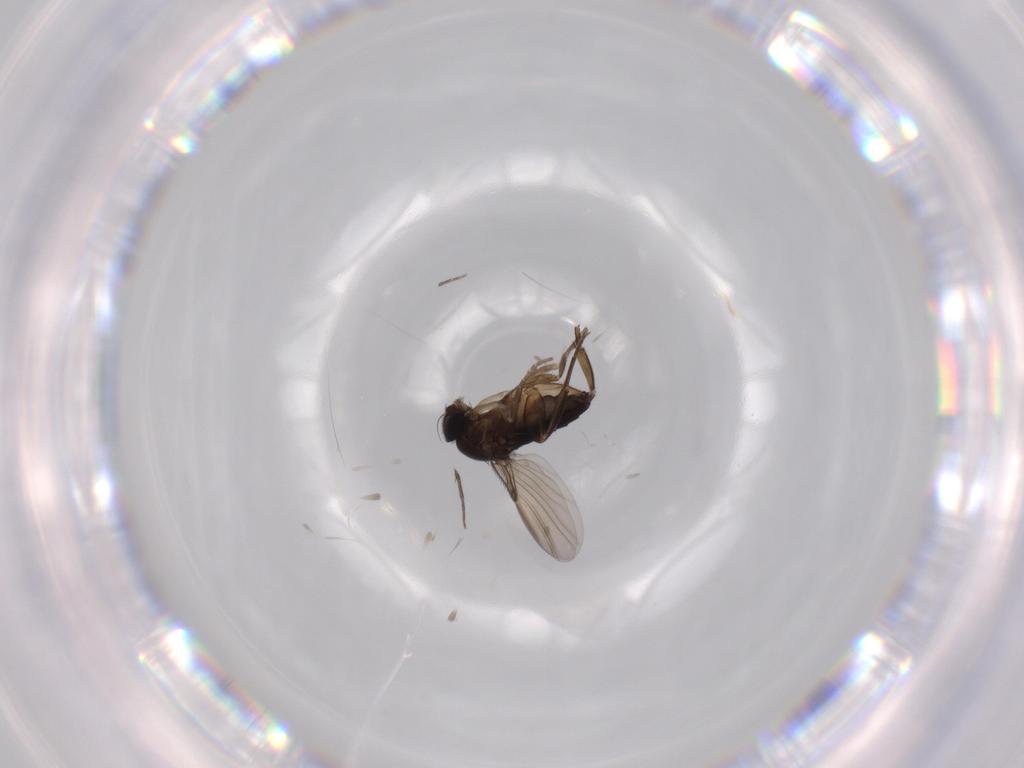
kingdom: Animalia
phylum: Arthropoda
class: Insecta
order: Diptera
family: Phoridae
